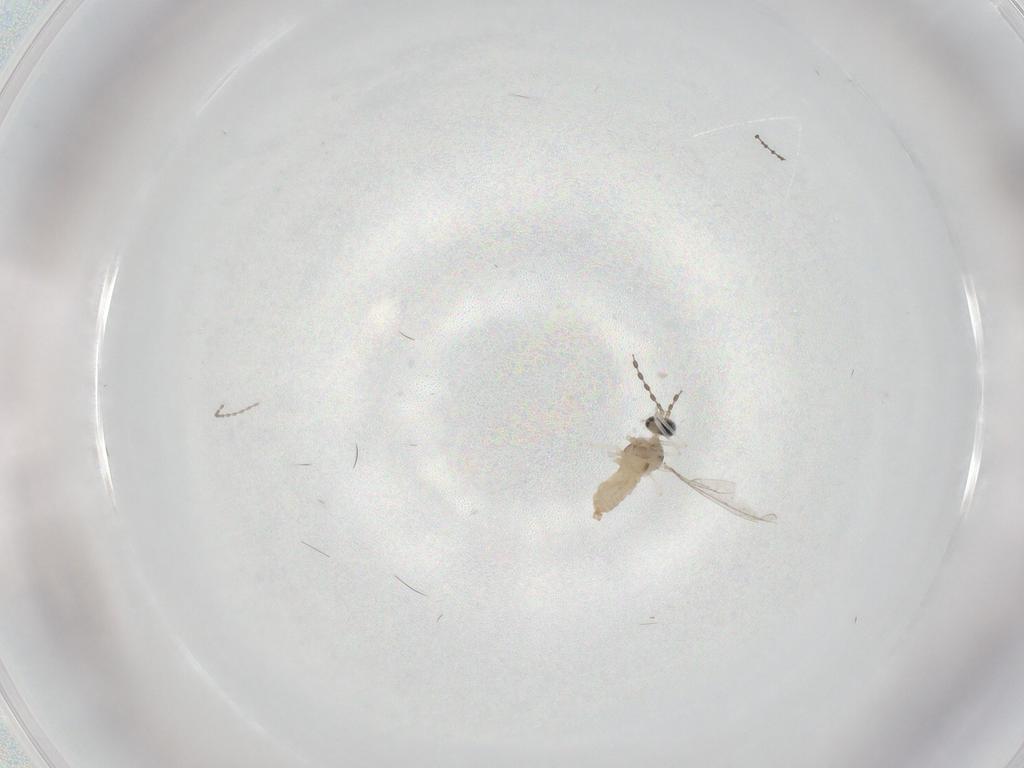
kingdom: Animalia
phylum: Arthropoda
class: Insecta
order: Diptera
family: Cecidomyiidae
